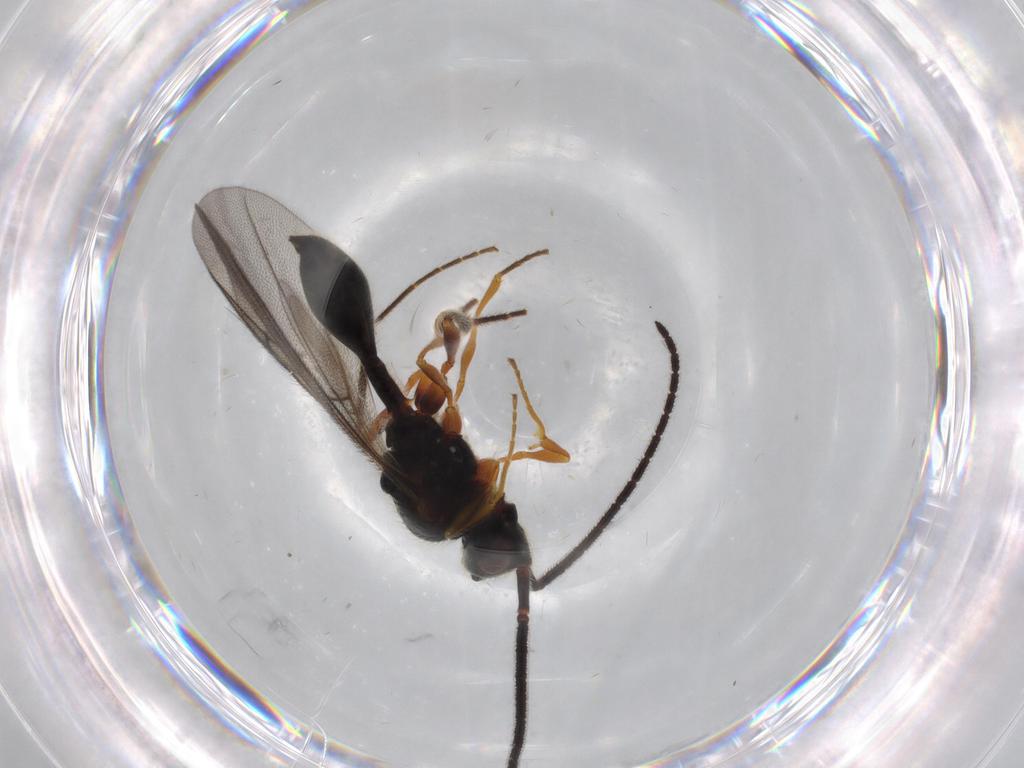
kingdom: Animalia
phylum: Arthropoda
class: Insecta
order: Hymenoptera
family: Diapriidae
